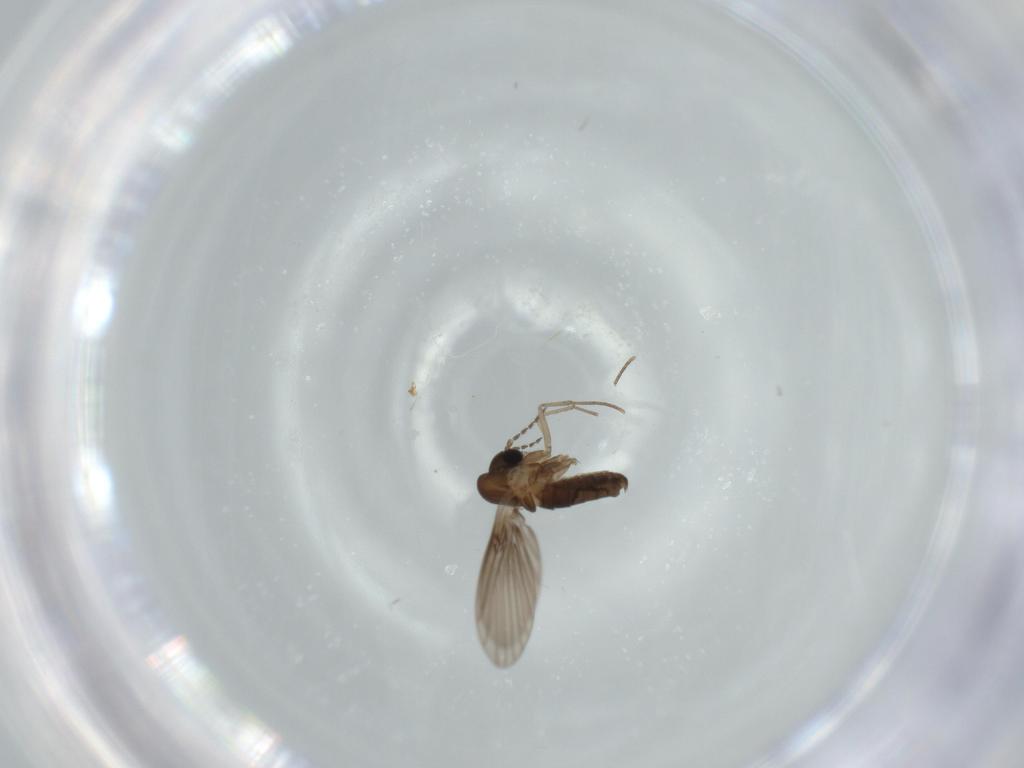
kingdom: Animalia
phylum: Arthropoda
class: Insecta
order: Diptera
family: Psychodidae
